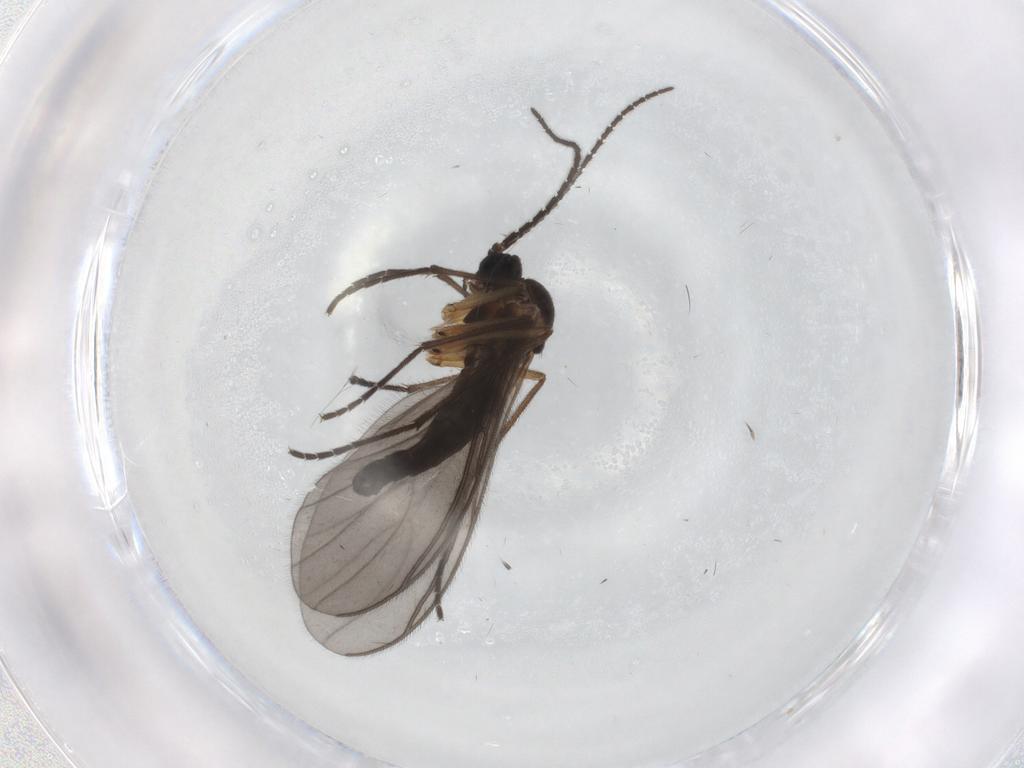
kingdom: Animalia
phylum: Arthropoda
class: Insecta
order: Diptera
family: Sciaridae
